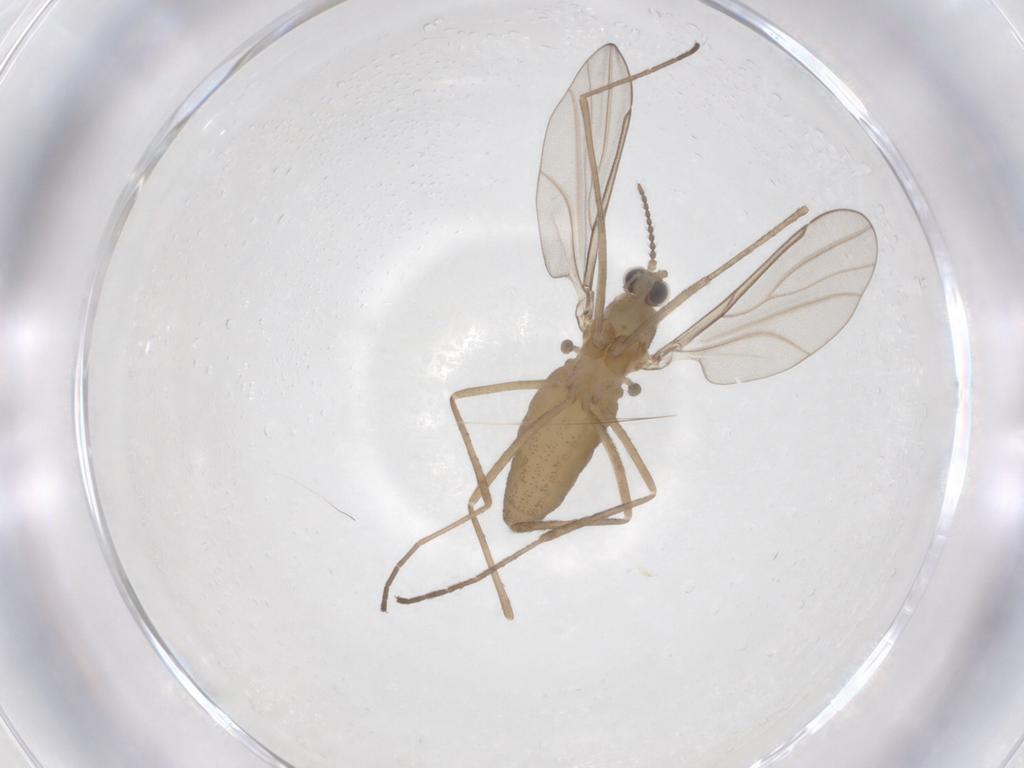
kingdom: Animalia
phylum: Arthropoda
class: Insecta
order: Diptera
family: Cecidomyiidae
